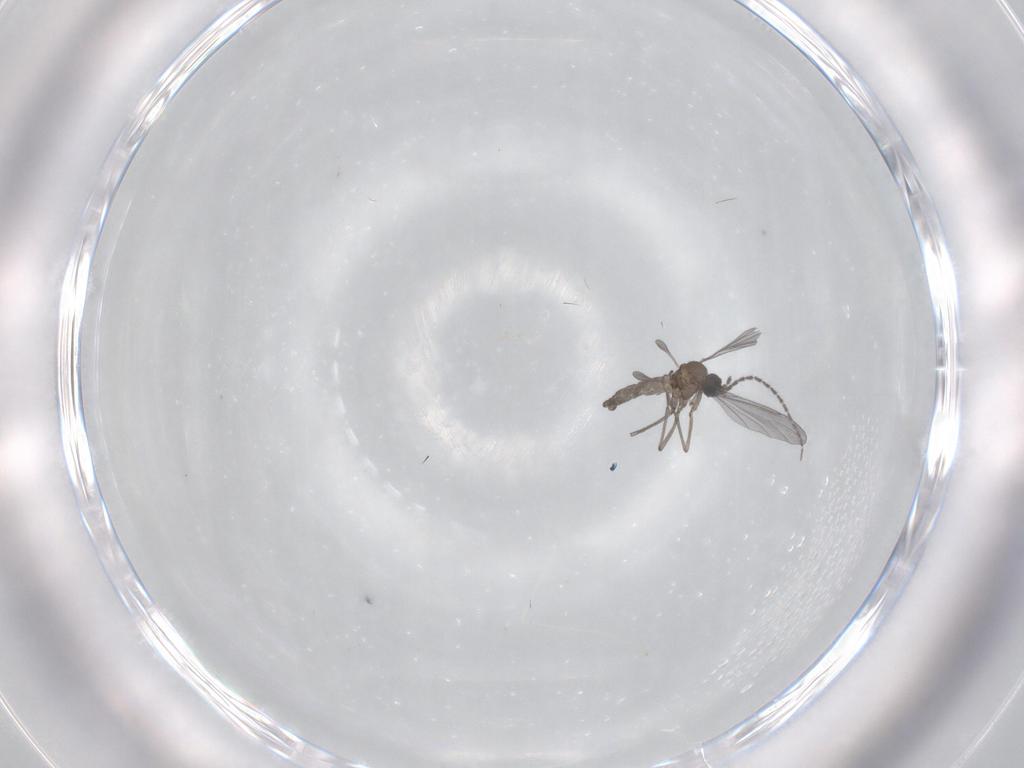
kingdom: Animalia
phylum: Arthropoda
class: Insecta
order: Diptera
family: Sciaridae
